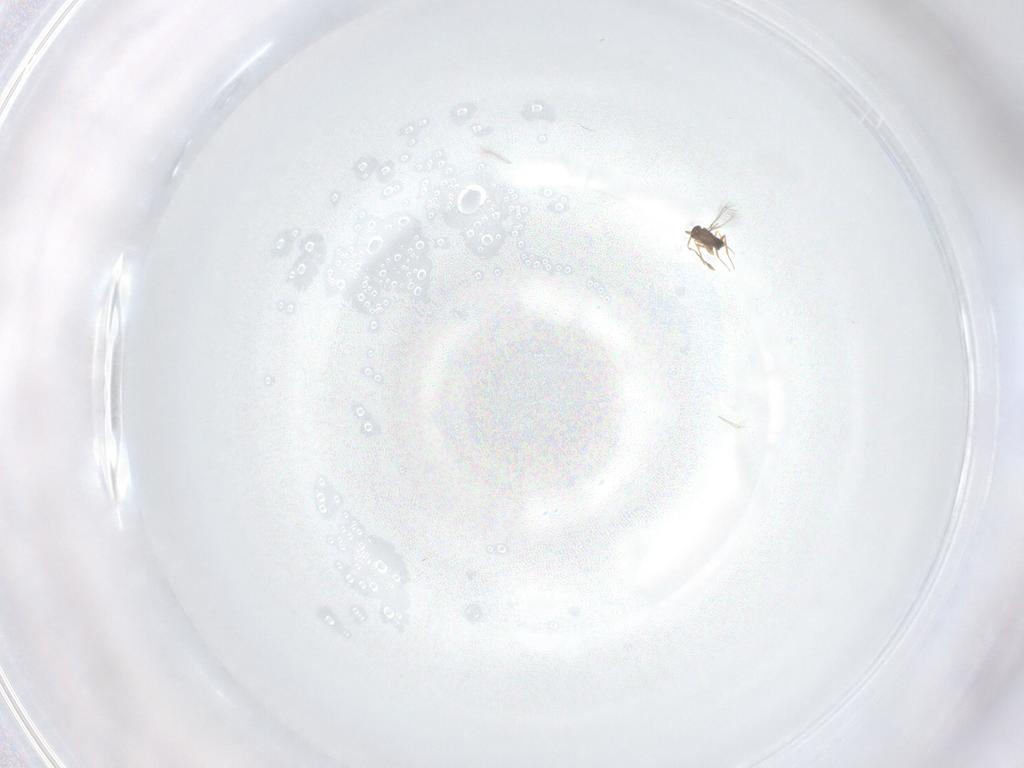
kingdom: Animalia
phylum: Arthropoda
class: Insecta
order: Hymenoptera
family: Mymaridae
